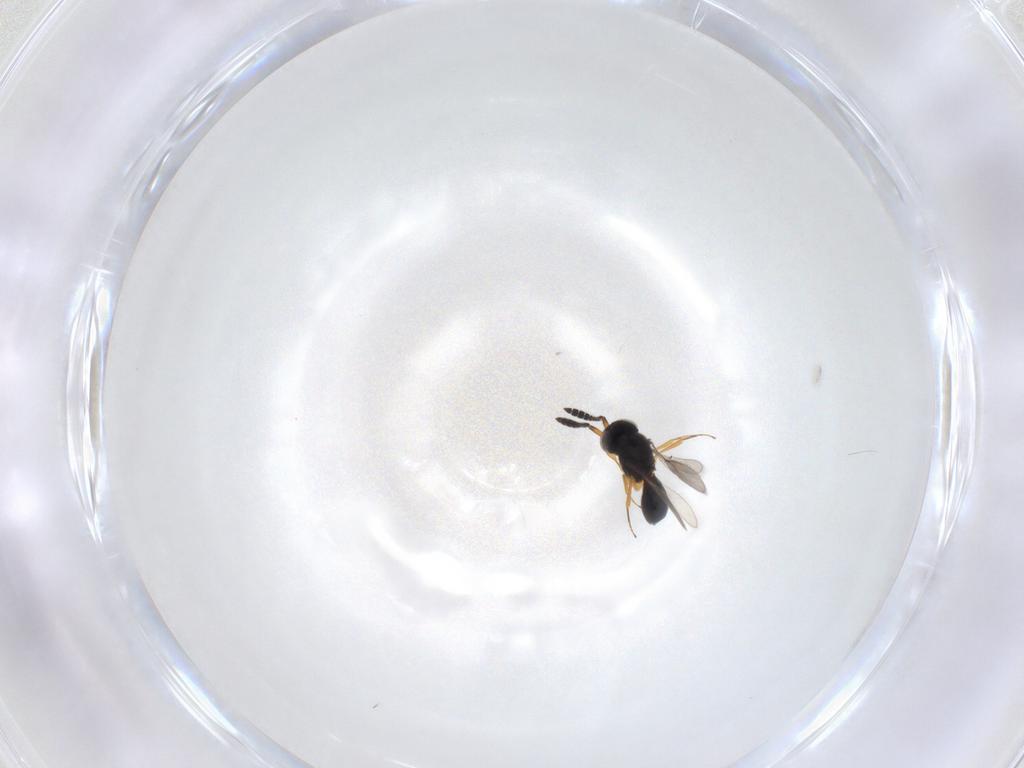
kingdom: Animalia
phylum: Arthropoda
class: Insecta
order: Hymenoptera
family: Scelionidae
